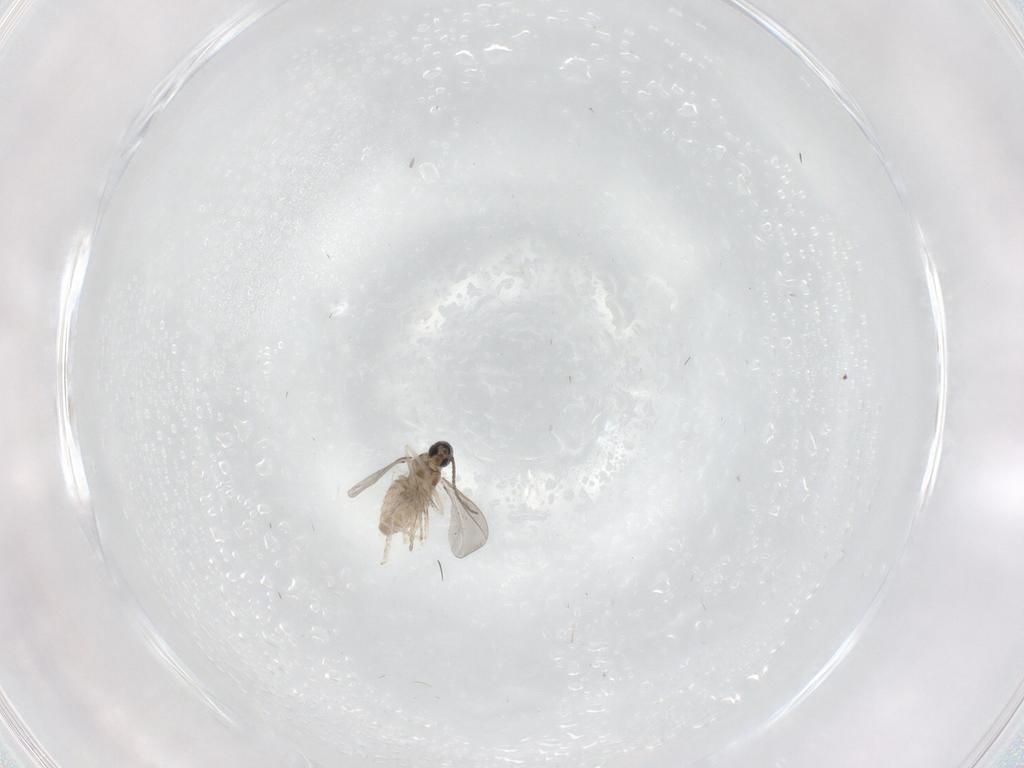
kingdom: Animalia
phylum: Arthropoda
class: Insecta
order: Diptera
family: Cecidomyiidae
